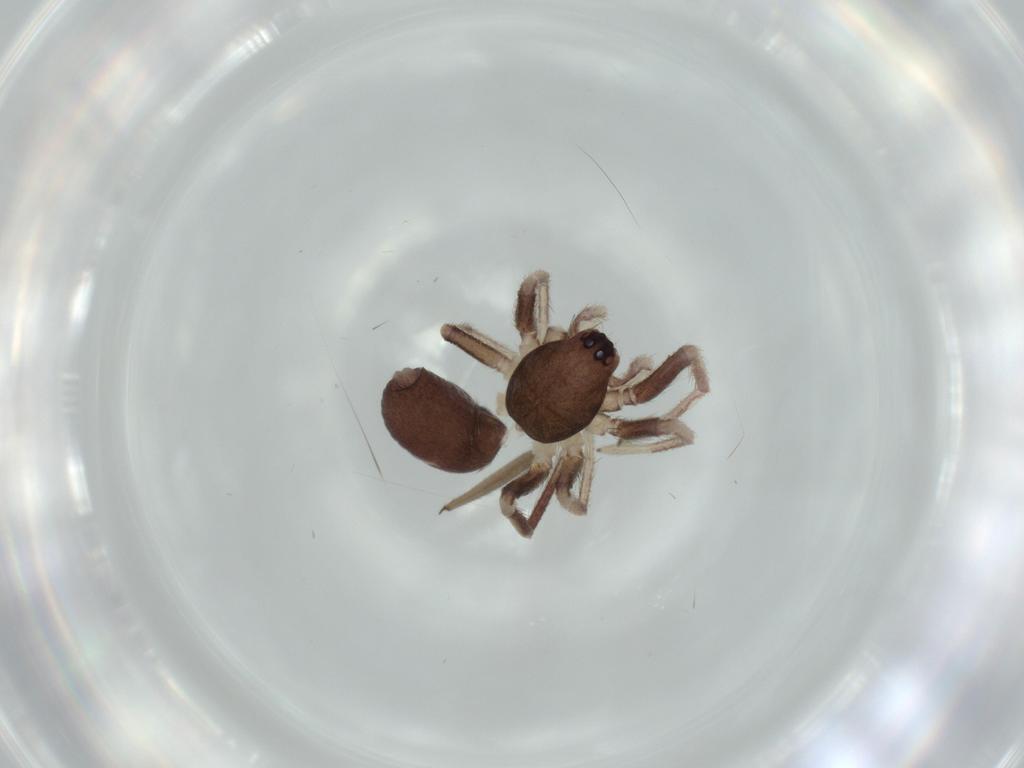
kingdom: Animalia
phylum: Arthropoda
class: Arachnida
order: Araneae
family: Corinnidae
